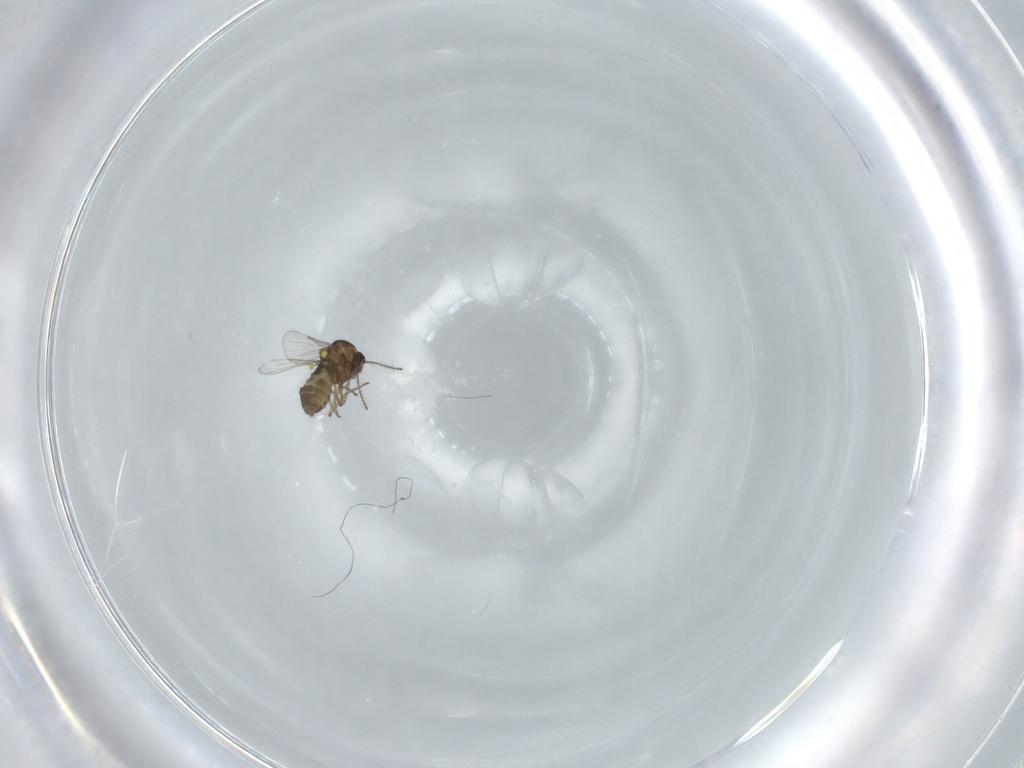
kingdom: Animalia
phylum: Arthropoda
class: Insecta
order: Diptera
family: Ceratopogonidae
